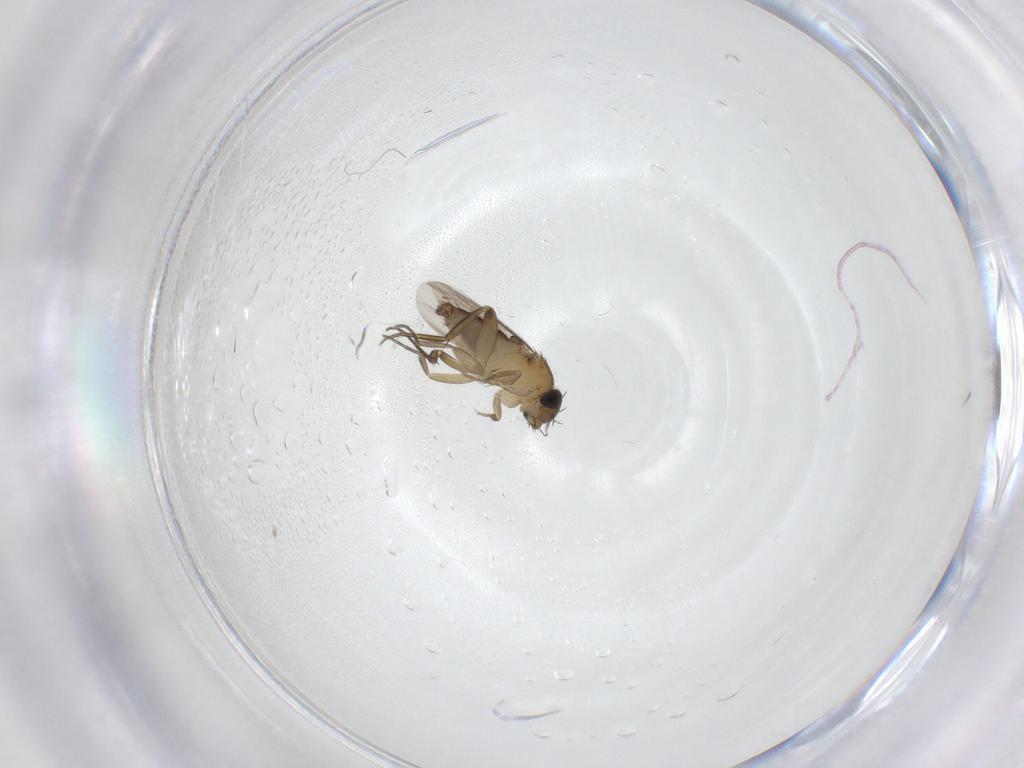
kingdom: Animalia
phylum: Arthropoda
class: Insecta
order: Diptera
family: Phoridae
